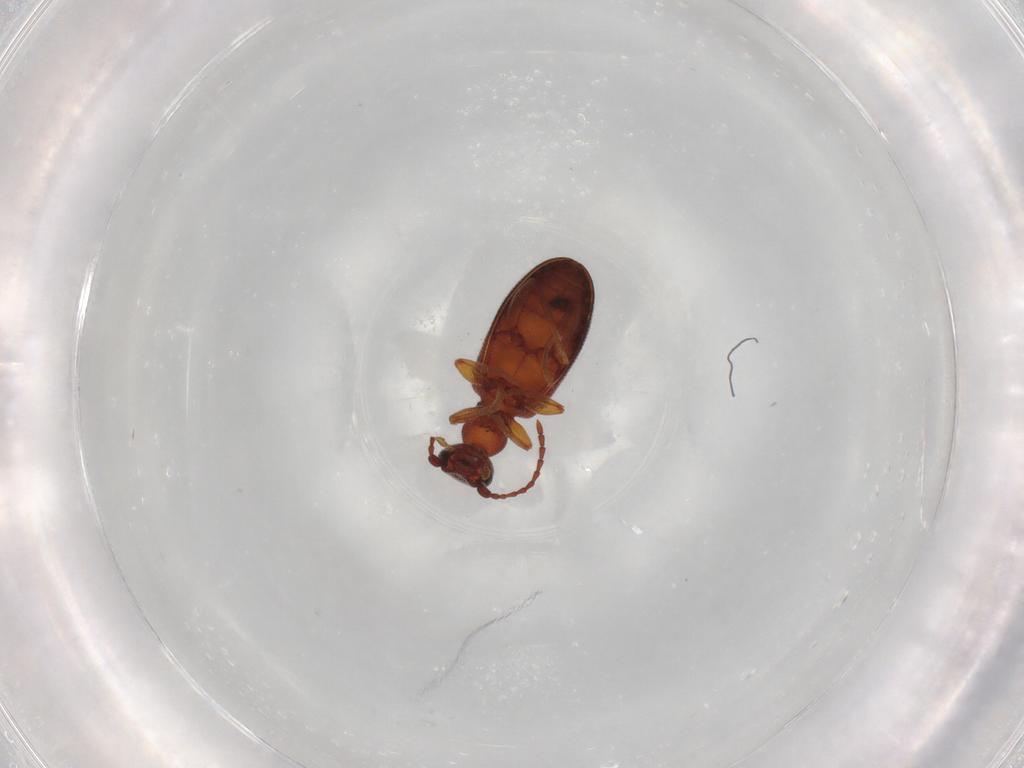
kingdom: Animalia
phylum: Arthropoda
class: Insecta
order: Coleoptera
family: Anthicidae
